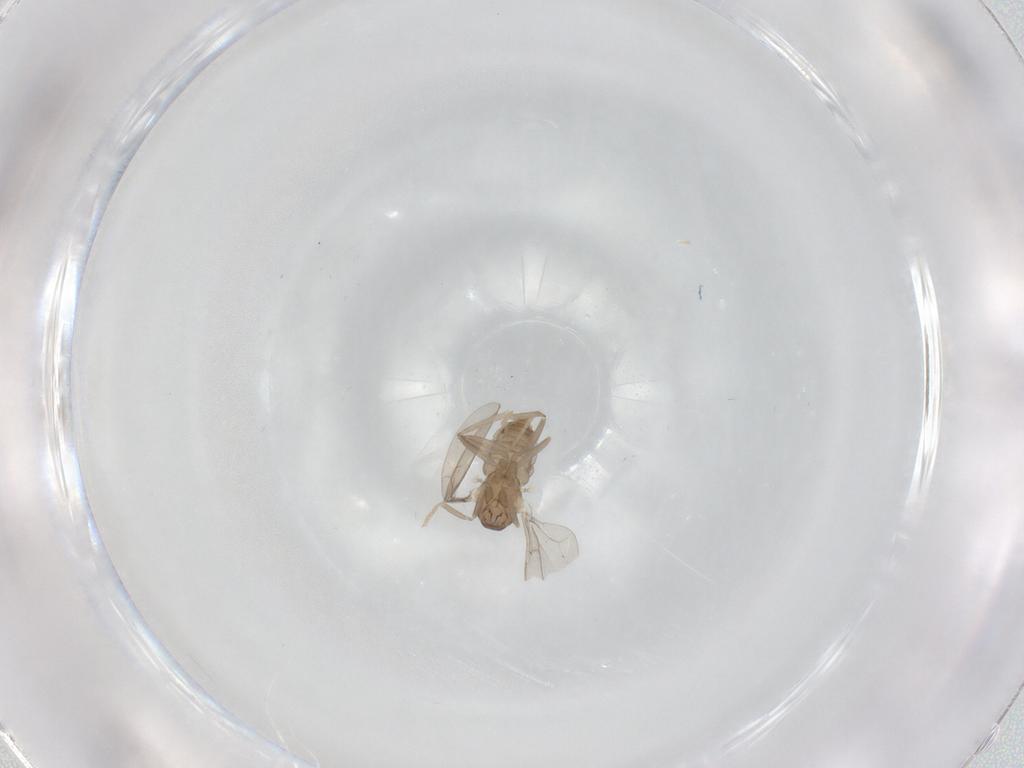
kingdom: Animalia
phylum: Arthropoda
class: Insecta
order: Diptera
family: Cecidomyiidae
